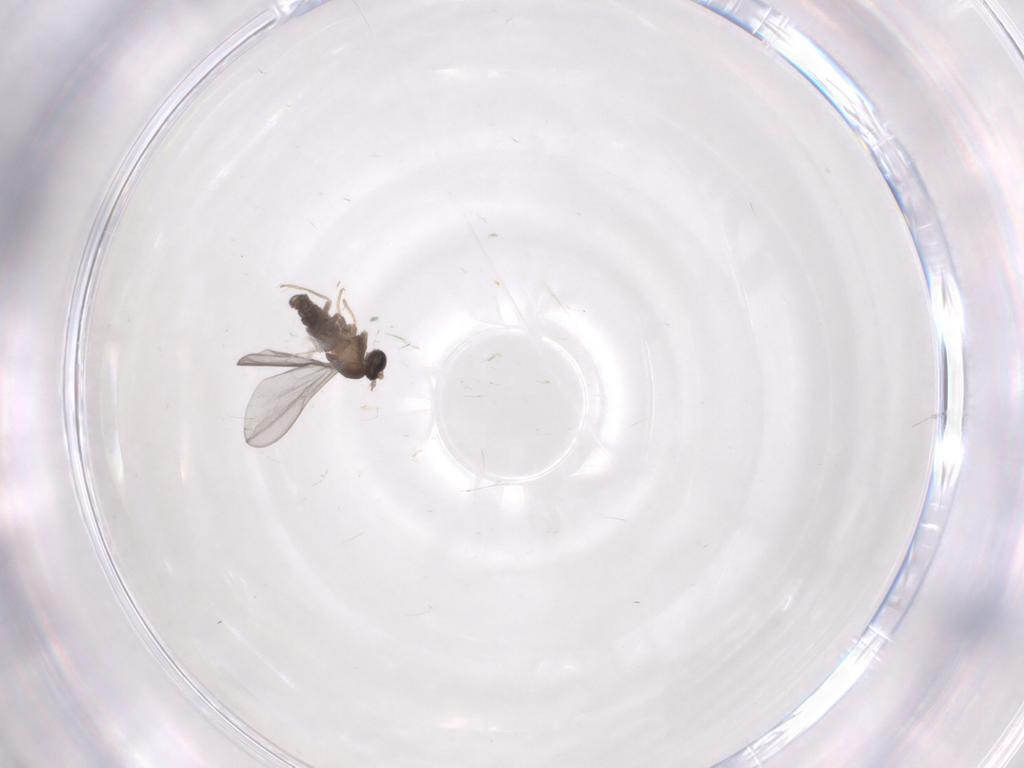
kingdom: Animalia
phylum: Arthropoda
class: Insecta
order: Diptera
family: Cecidomyiidae
